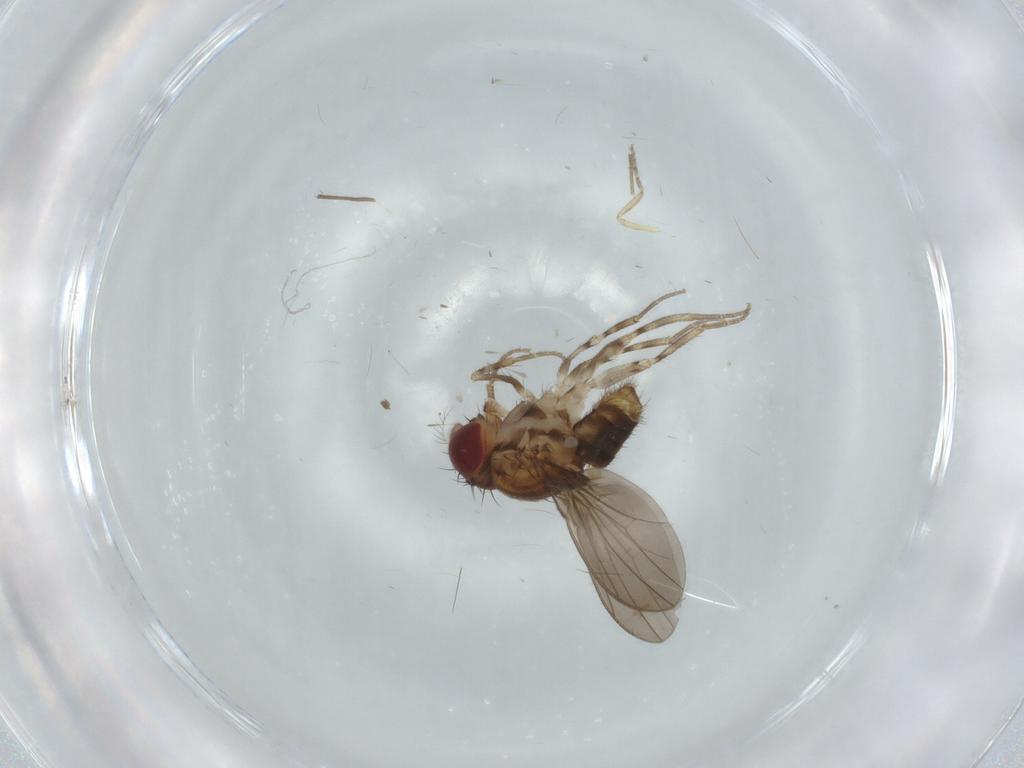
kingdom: Animalia
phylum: Arthropoda
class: Insecta
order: Diptera
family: Drosophilidae
